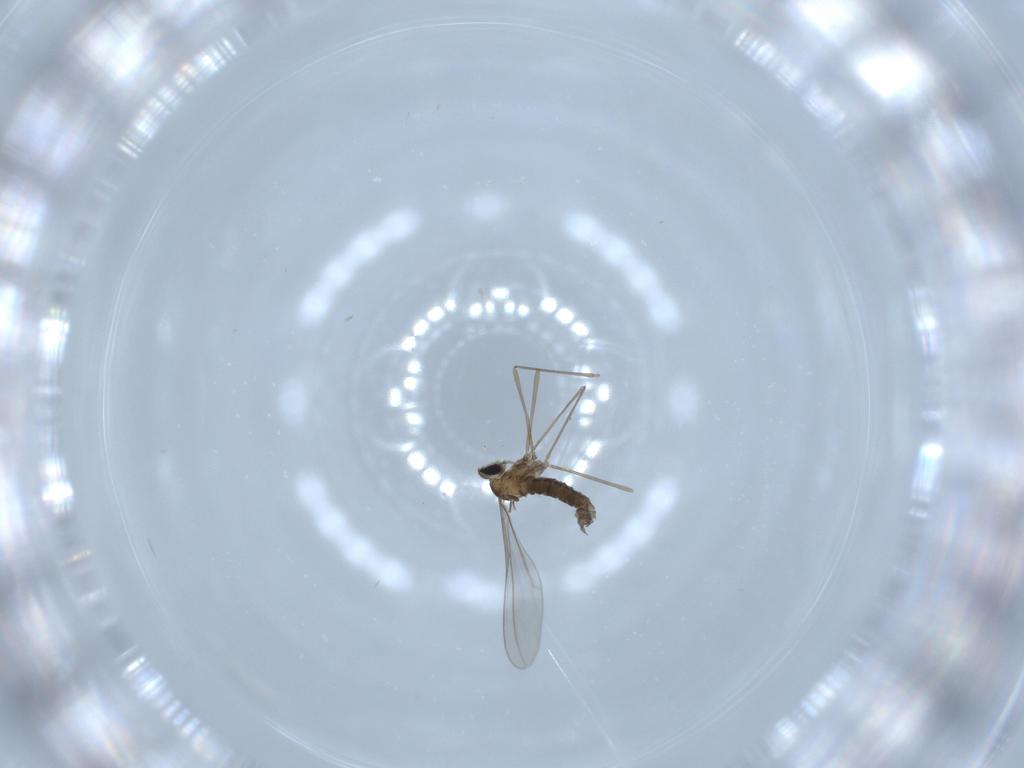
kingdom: Animalia
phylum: Arthropoda
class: Insecta
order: Diptera
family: Cecidomyiidae
